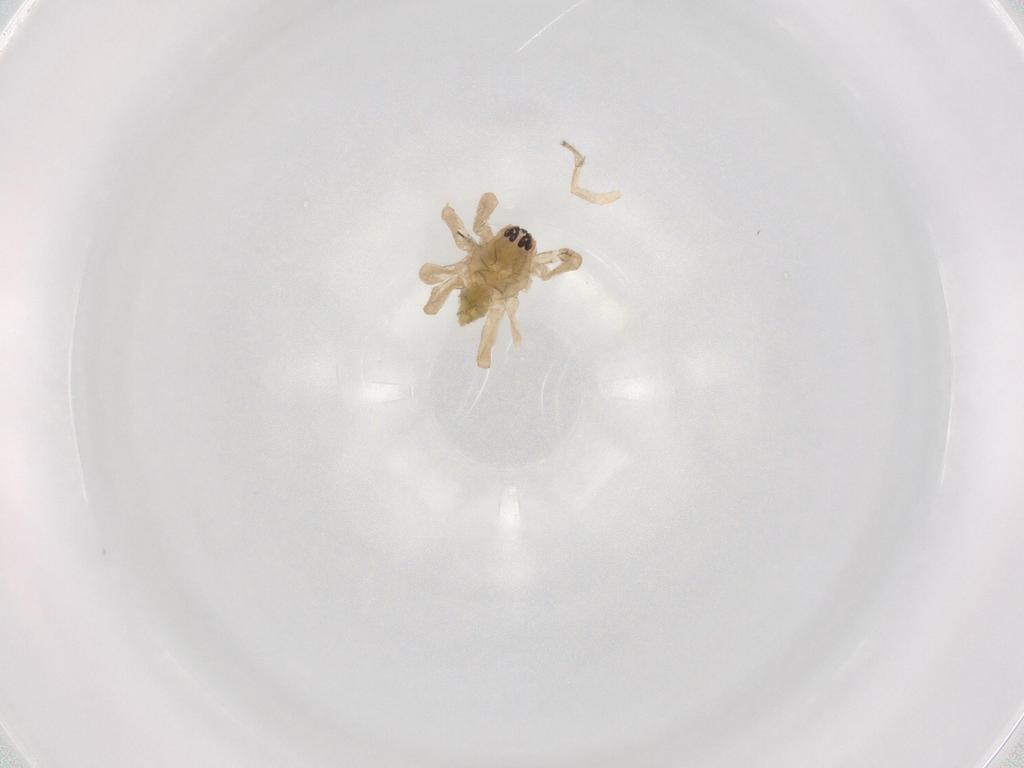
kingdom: Animalia
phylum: Arthropoda
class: Arachnida
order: Araneae
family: Anyphaenidae
